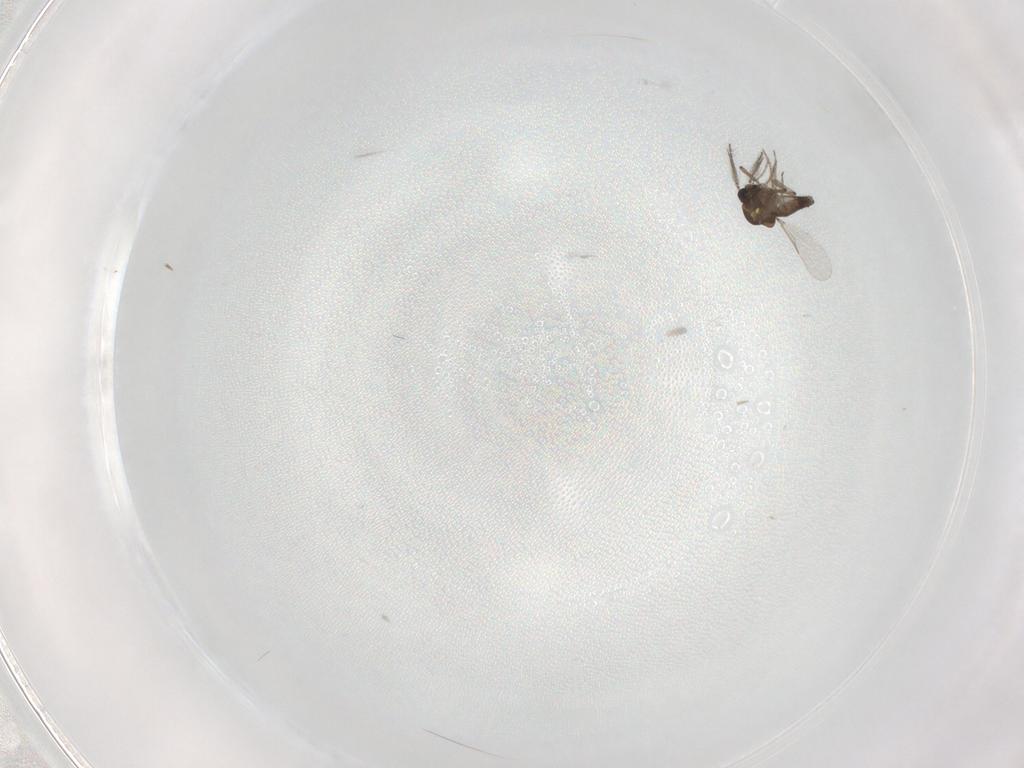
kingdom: Animalia
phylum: Arthropoda
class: Insecta
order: Diptera
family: Ceratopogonidae
